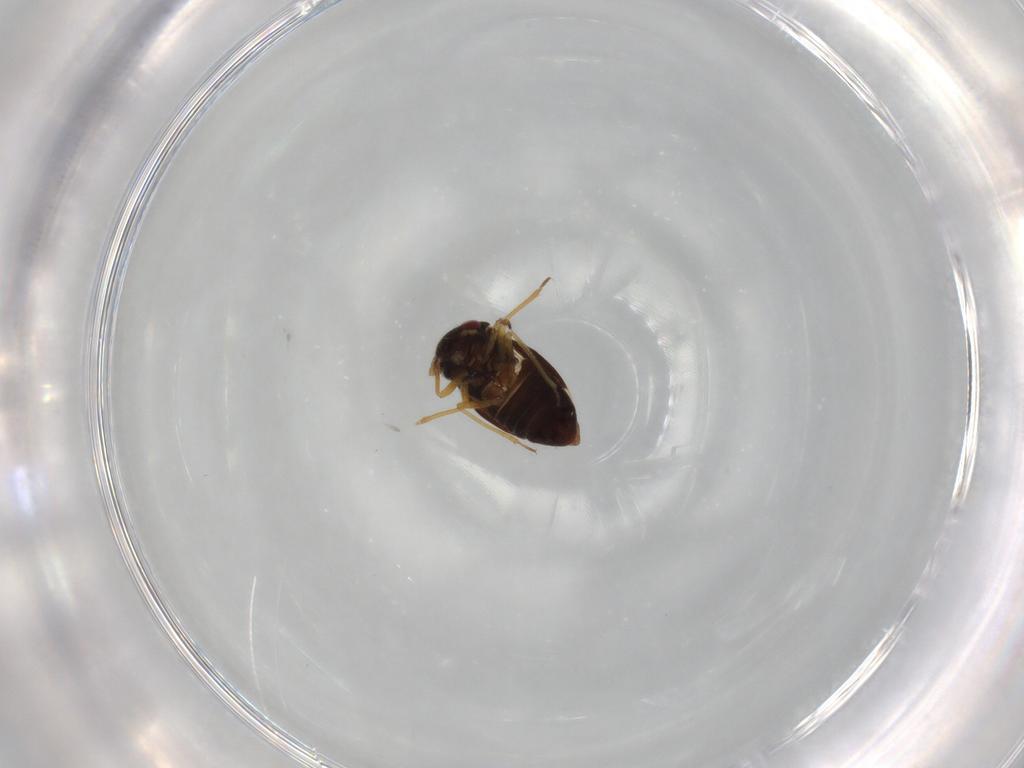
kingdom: Animalia
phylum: Arthropoda
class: Insecta
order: Hemiptera
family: Schizopteridae
